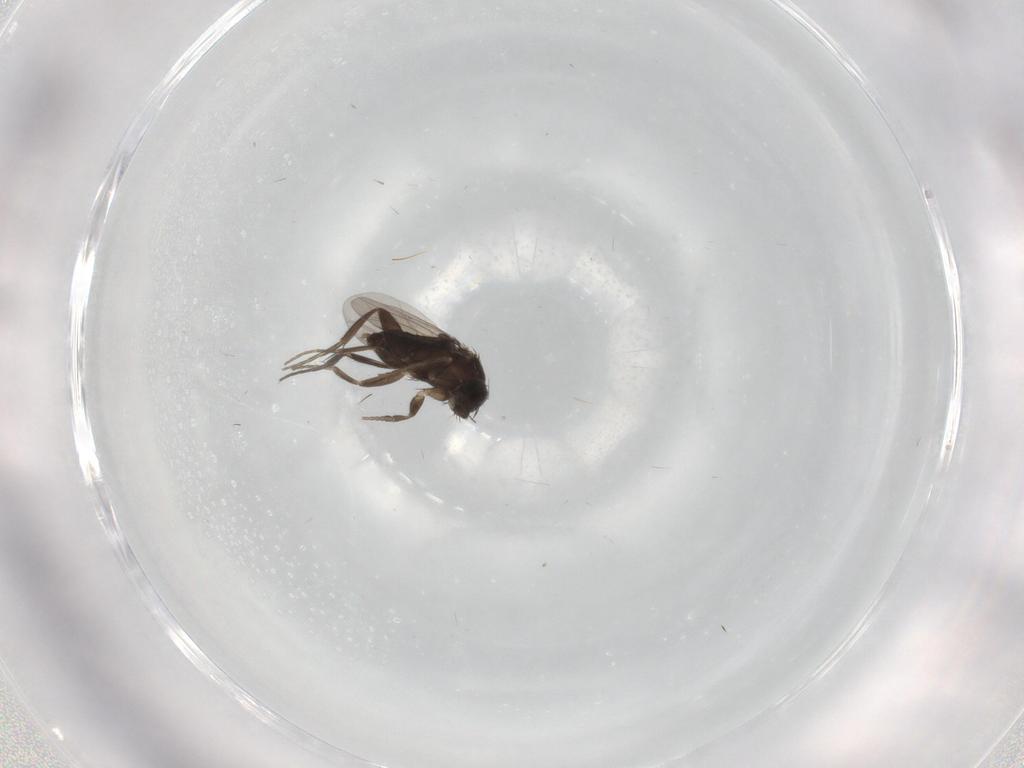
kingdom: Animalia
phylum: Arthropoda
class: Insecta
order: Diptera
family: Phoridae
